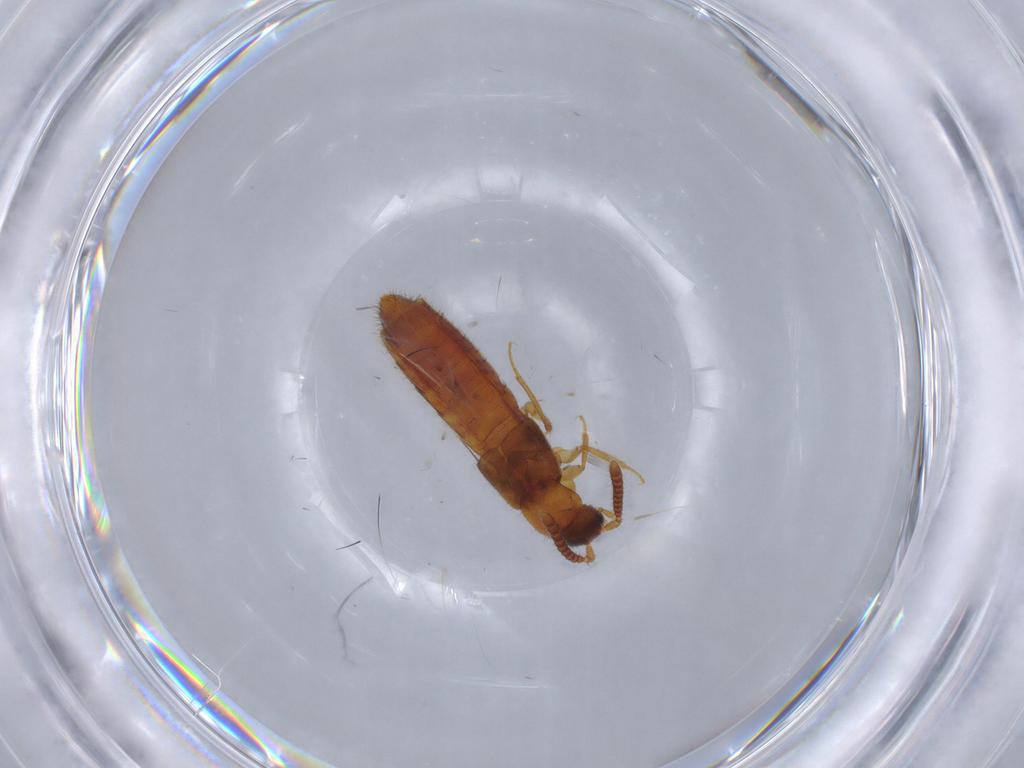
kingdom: Animalia
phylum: Arthropoda
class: Insecta
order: Coleoptera
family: Staphylinidae
